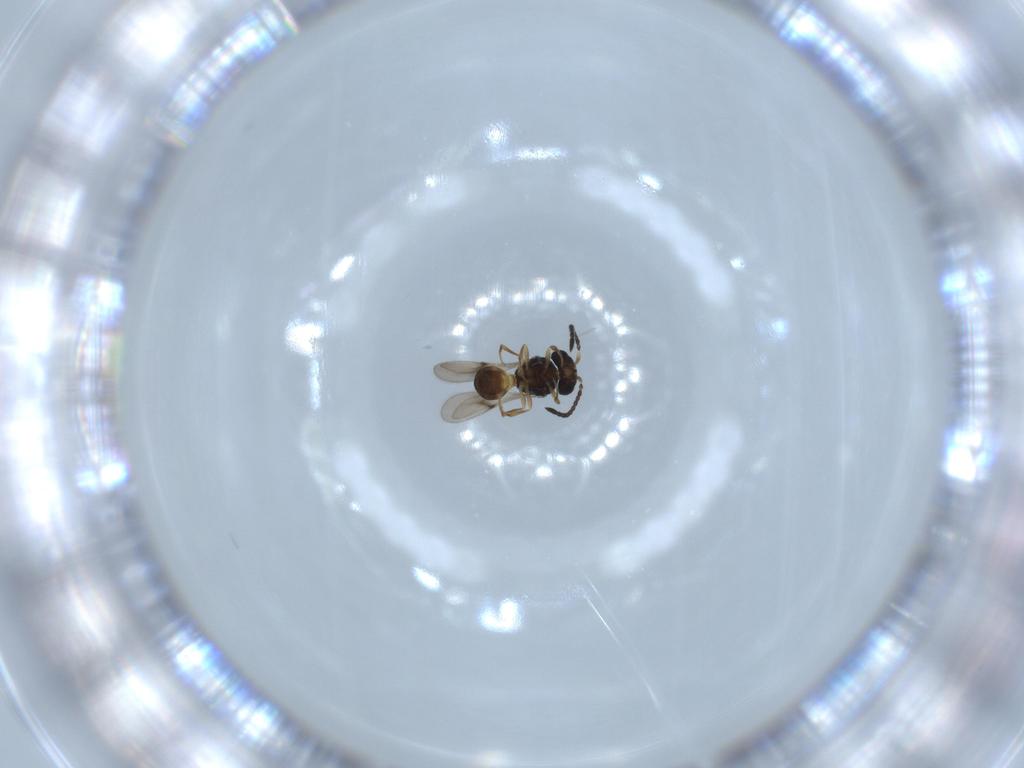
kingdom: Animalia
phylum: Arthropoda
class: Arachnida
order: Araneae
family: Pholcidae
